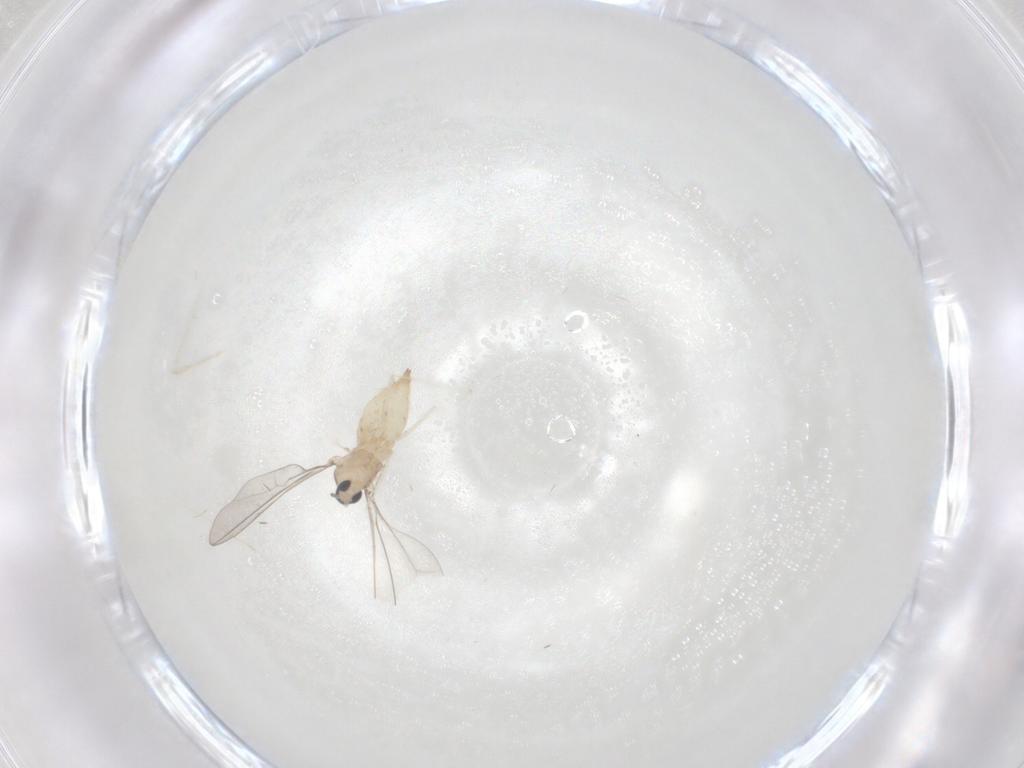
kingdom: Animalia
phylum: Arthropoda
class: Insecta
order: Diptera
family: Cecidomyiidae
